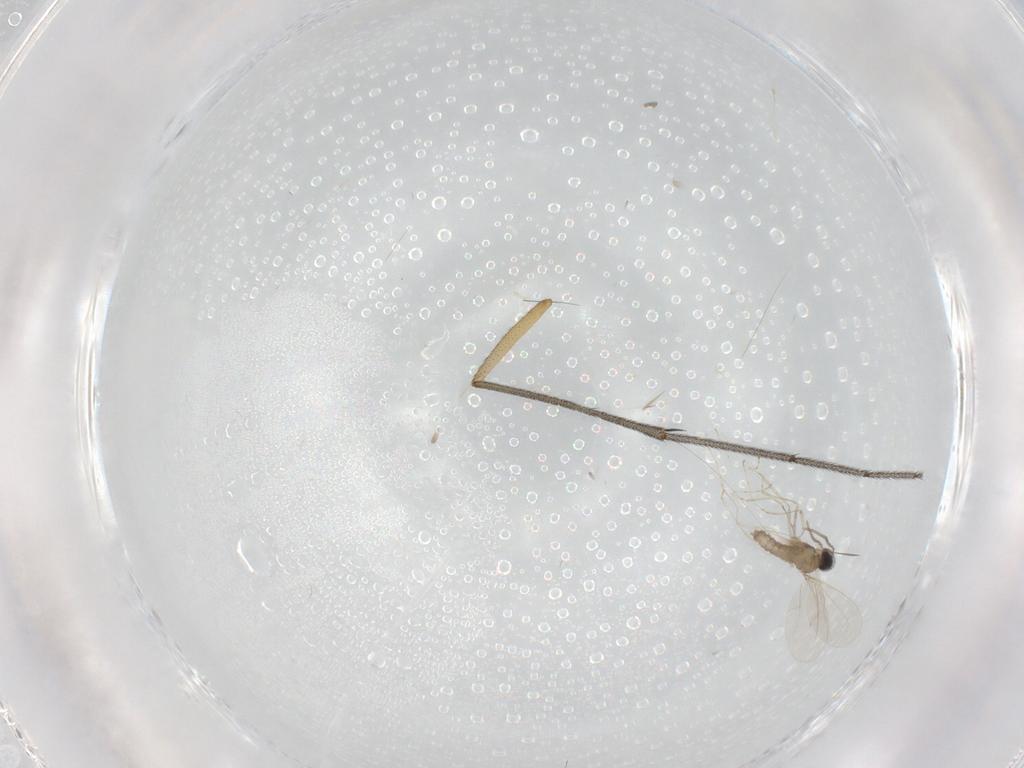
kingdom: Animalia
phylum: Arthropoda
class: Insecta
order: Diptera
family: Cecidomyiidae
